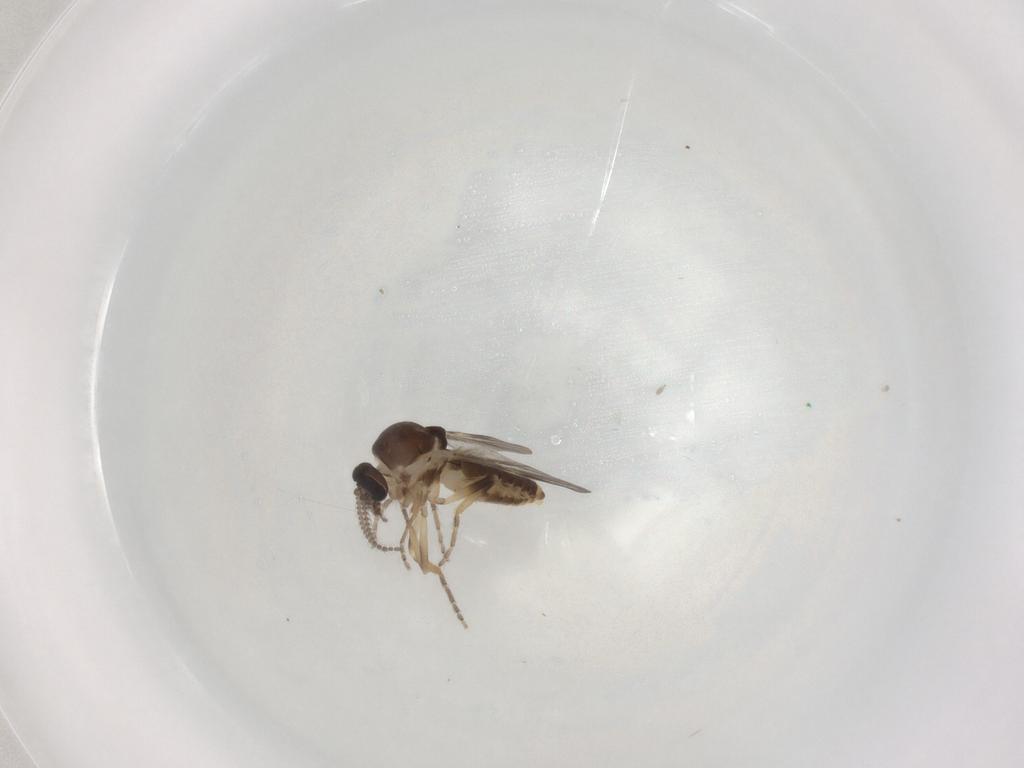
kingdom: Animalia
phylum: Arthropoda
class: Insecta
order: Diptera
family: Ceratopogonidae
